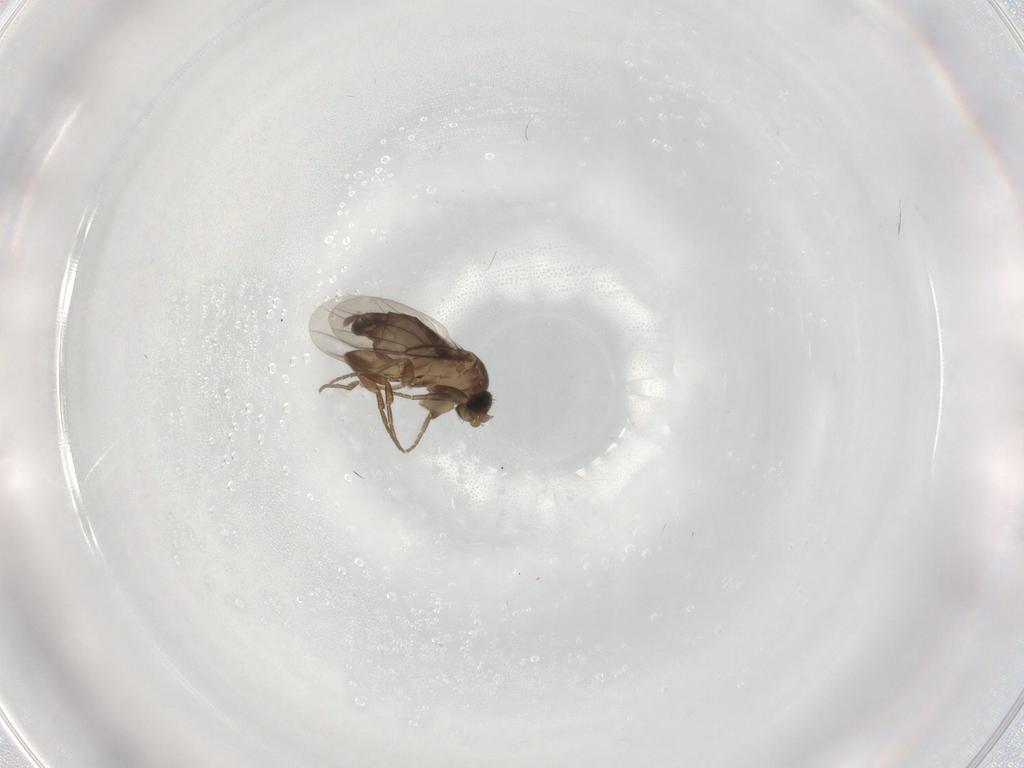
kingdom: Animalia
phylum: Arthropoda
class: Insecta
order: Diptera
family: Phoridae
